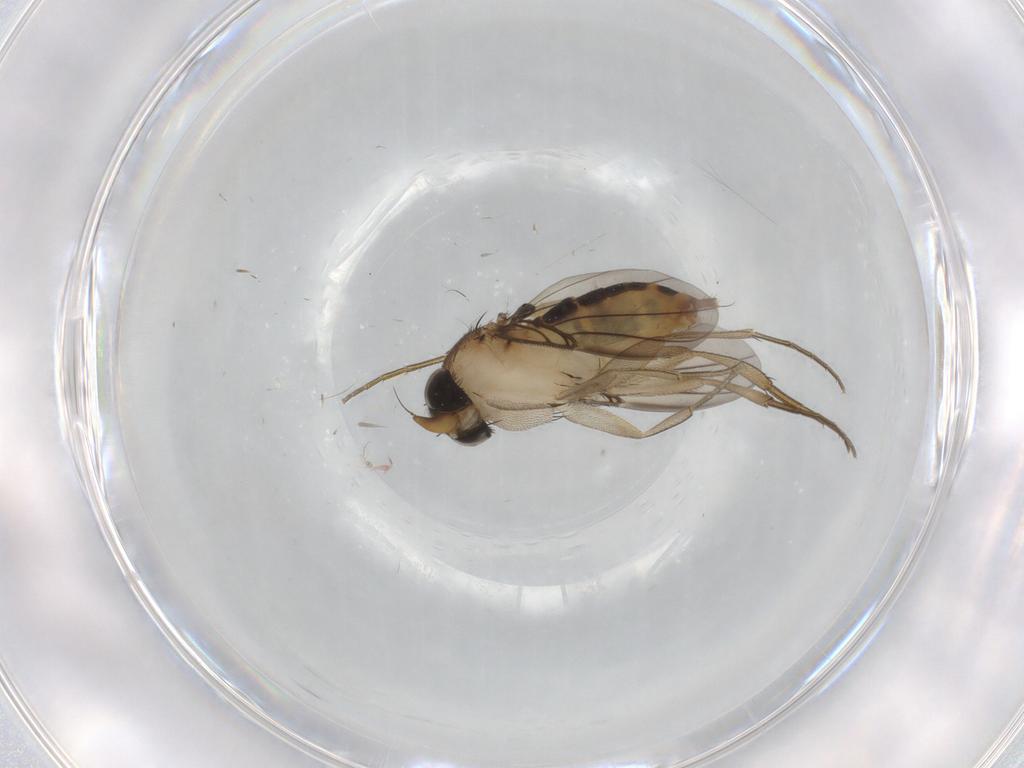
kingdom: Animalia
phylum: Arthropoda
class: Insecta
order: Diptera
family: Phoridae
